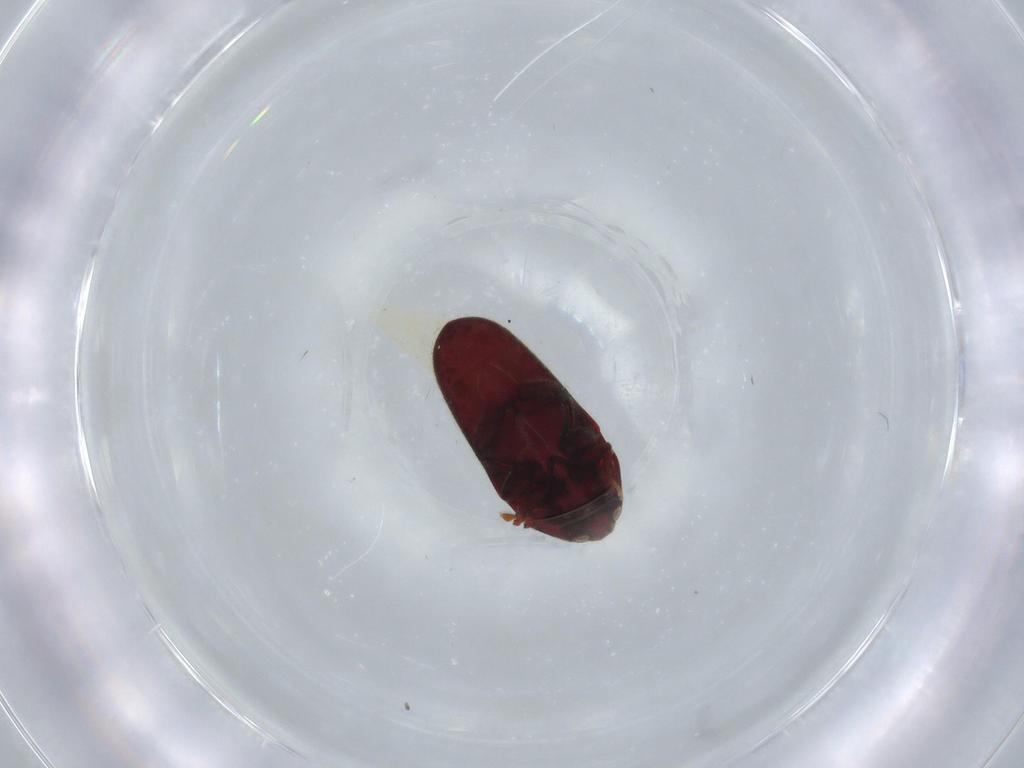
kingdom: Animalia
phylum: Arthropoda
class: Insecta
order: Coleoptera
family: Throscidae
